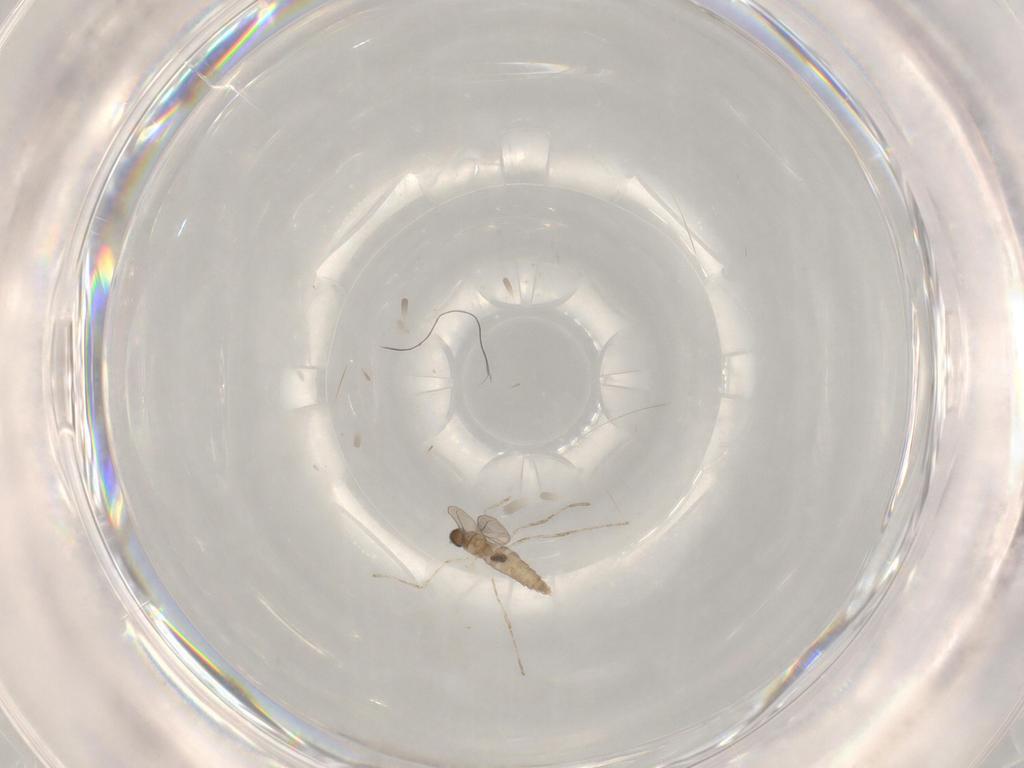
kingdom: Animalia
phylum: Arthropoda
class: Insecta
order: Diptera
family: Chironomidae
